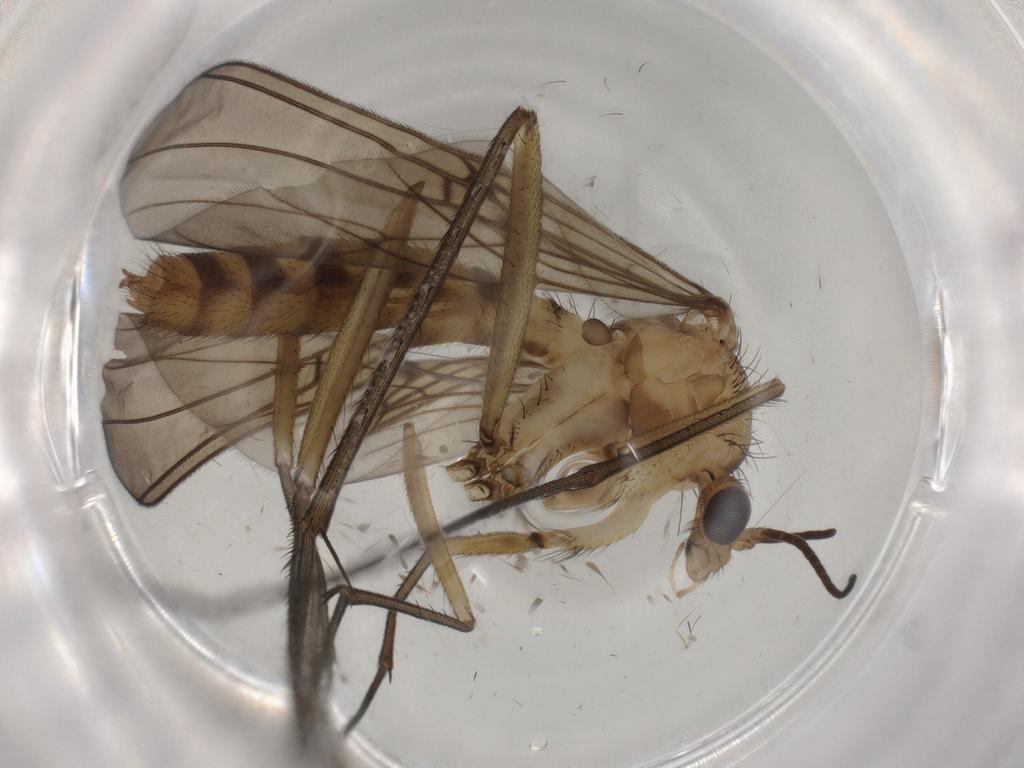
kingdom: Animalia
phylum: Arthropoda
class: Insecta
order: Diptera
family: Mycetophilidae
